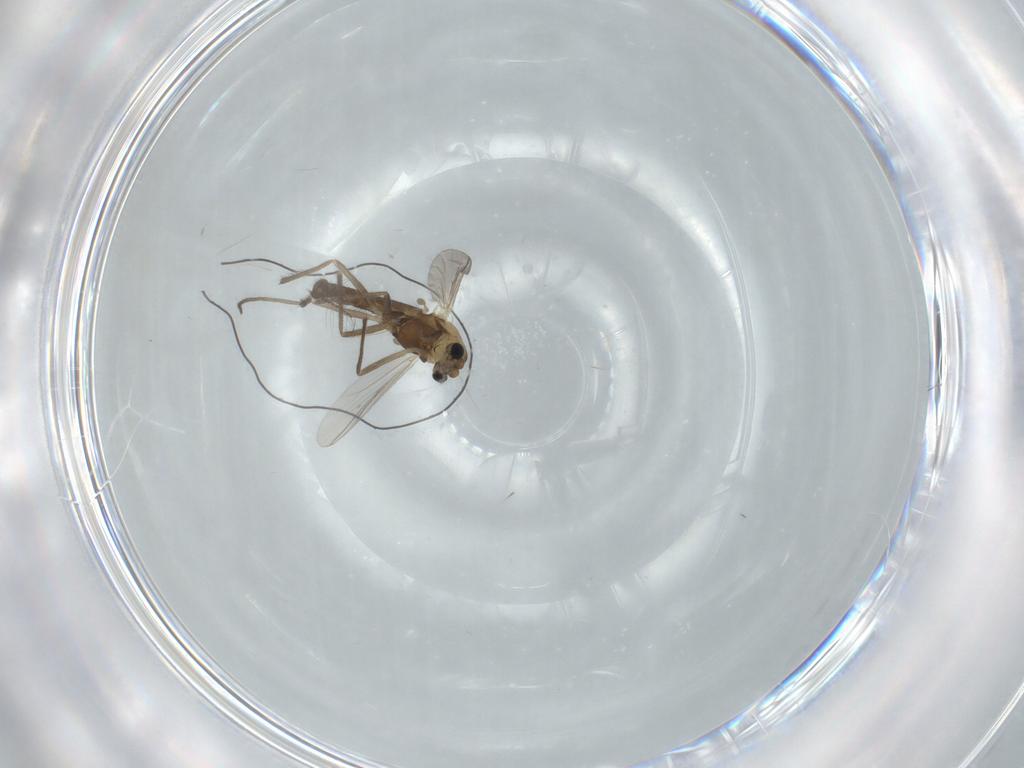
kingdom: Animalia
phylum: Arthropoda
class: Insecta
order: Diptera
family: Chironomidae
